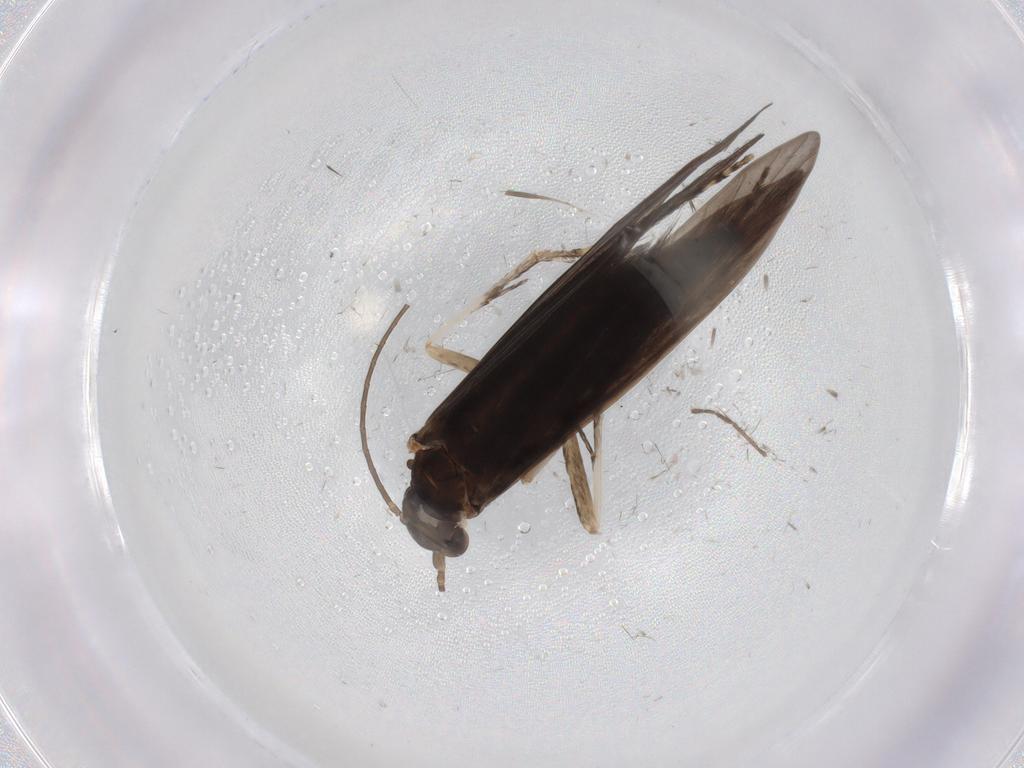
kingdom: Animalia
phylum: Arthropoda
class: Insecta
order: Trichoptera
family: Xiphocentronidae
